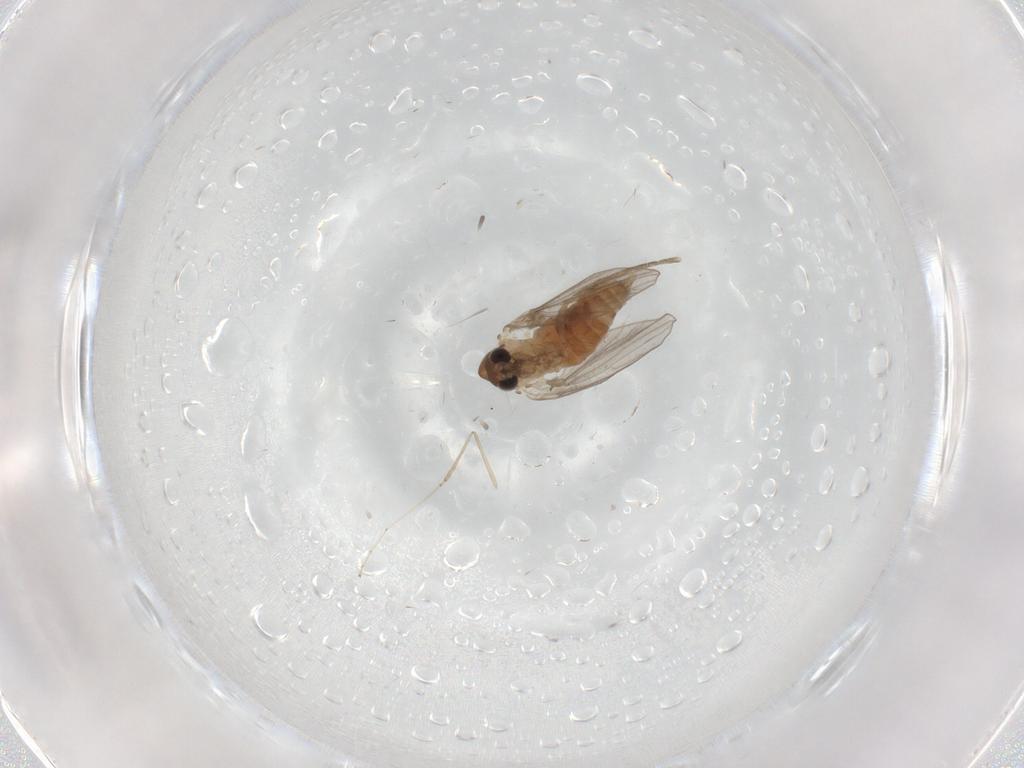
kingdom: Animalia
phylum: Arthropoda
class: Insecta
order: Diptera
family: Psychodidae
